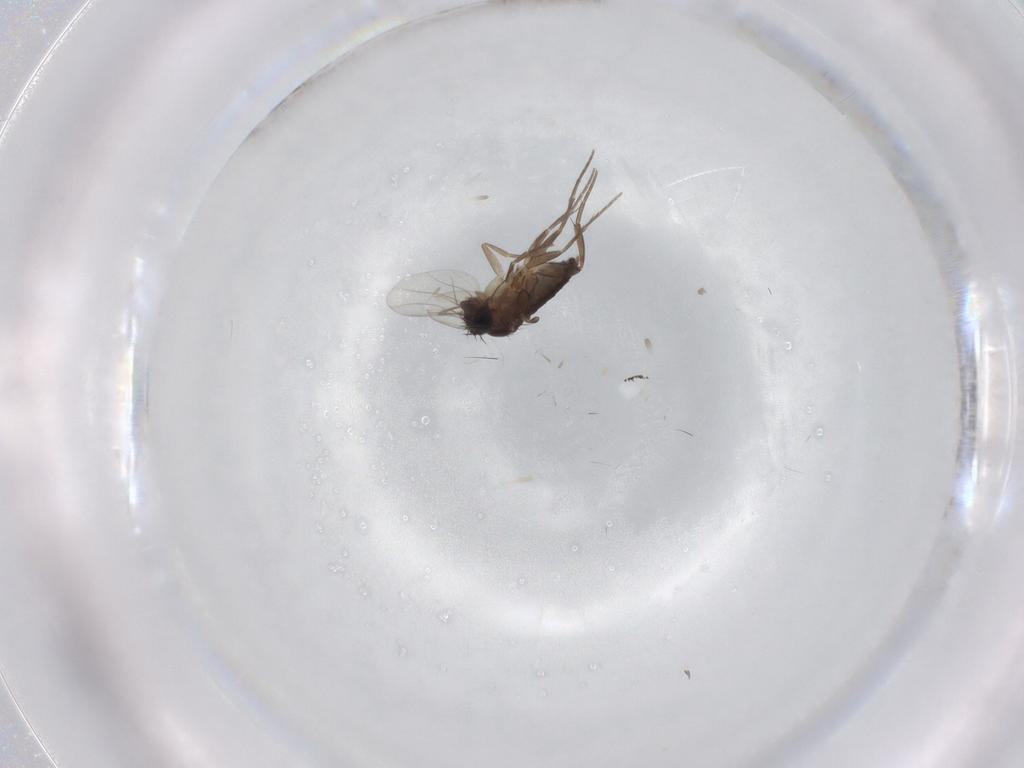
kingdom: Animalia
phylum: Arthropoda
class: Insecta
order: Diptera
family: Phoridae
